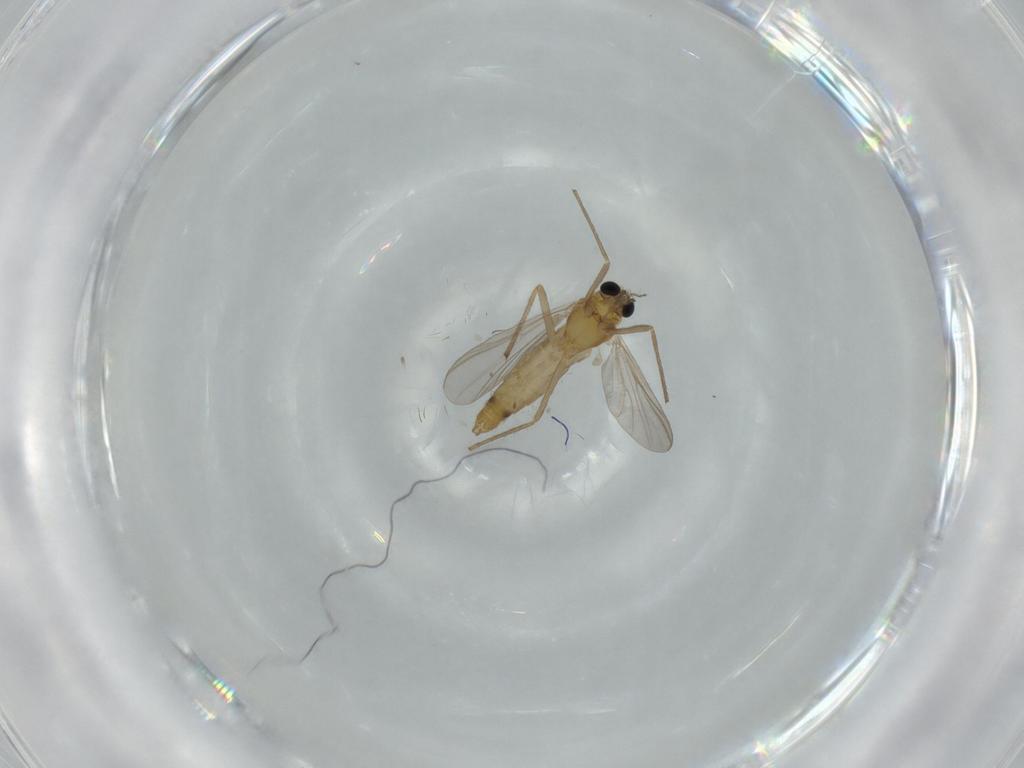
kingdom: Animalia
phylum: Arthropoda
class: Insecta
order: Diptera
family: Chironomidae
